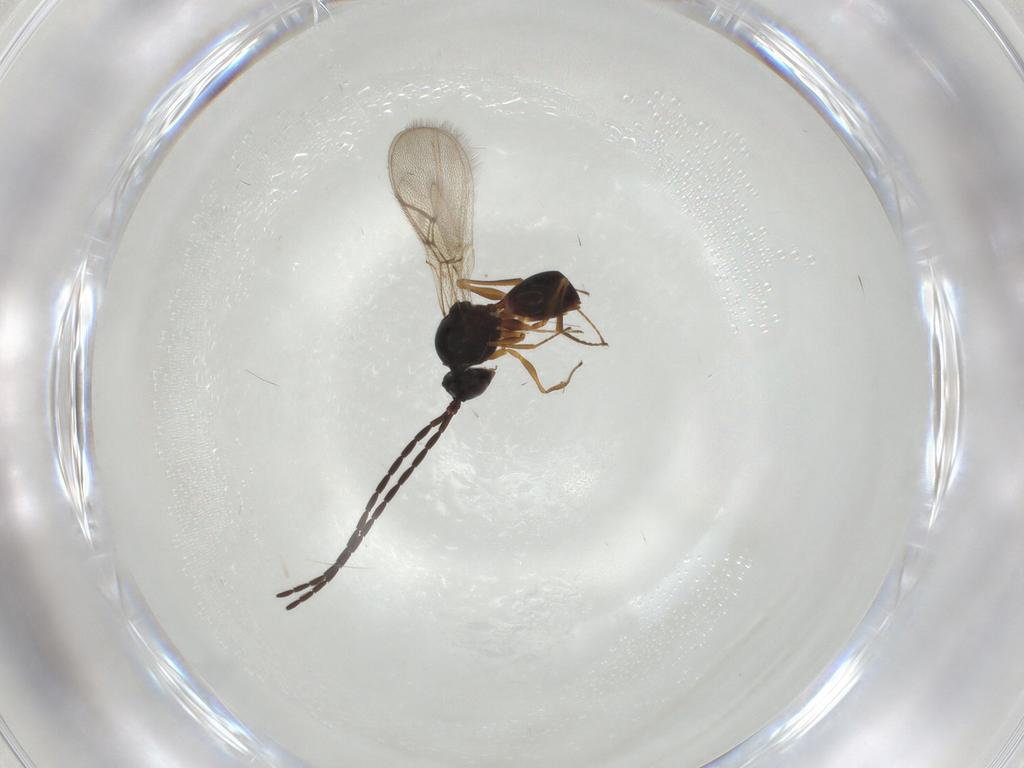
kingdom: Animalia
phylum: Arthropoda
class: Insecta
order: Hymenoptera
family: Figitidae
